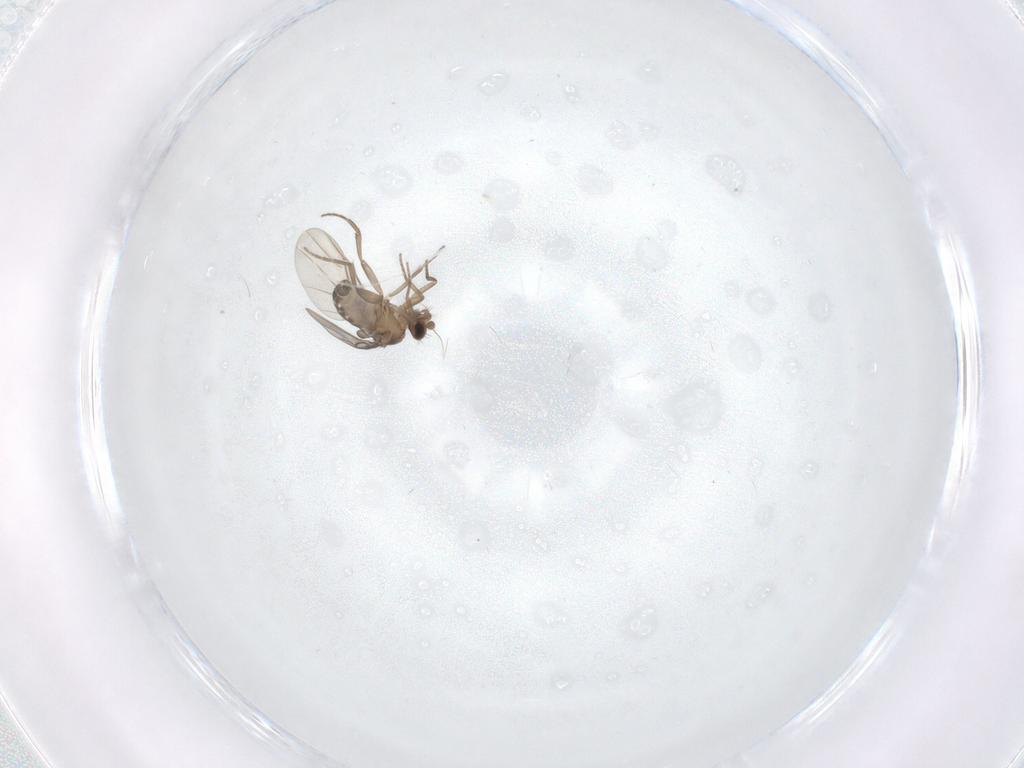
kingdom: Animalia
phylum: Arthropoda
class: Insecta
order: Diptera
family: Phoridae
